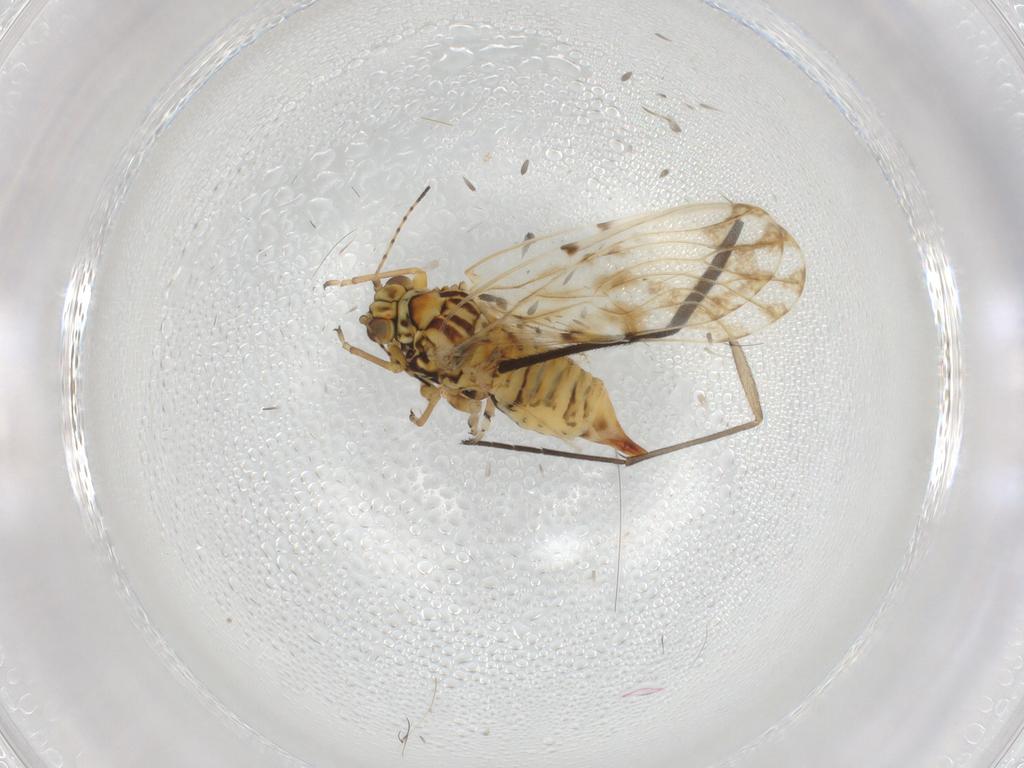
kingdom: Animalia
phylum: Arthropoda
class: Insecta
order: Hemiptera
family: Psylloidea_incertae_sedis
